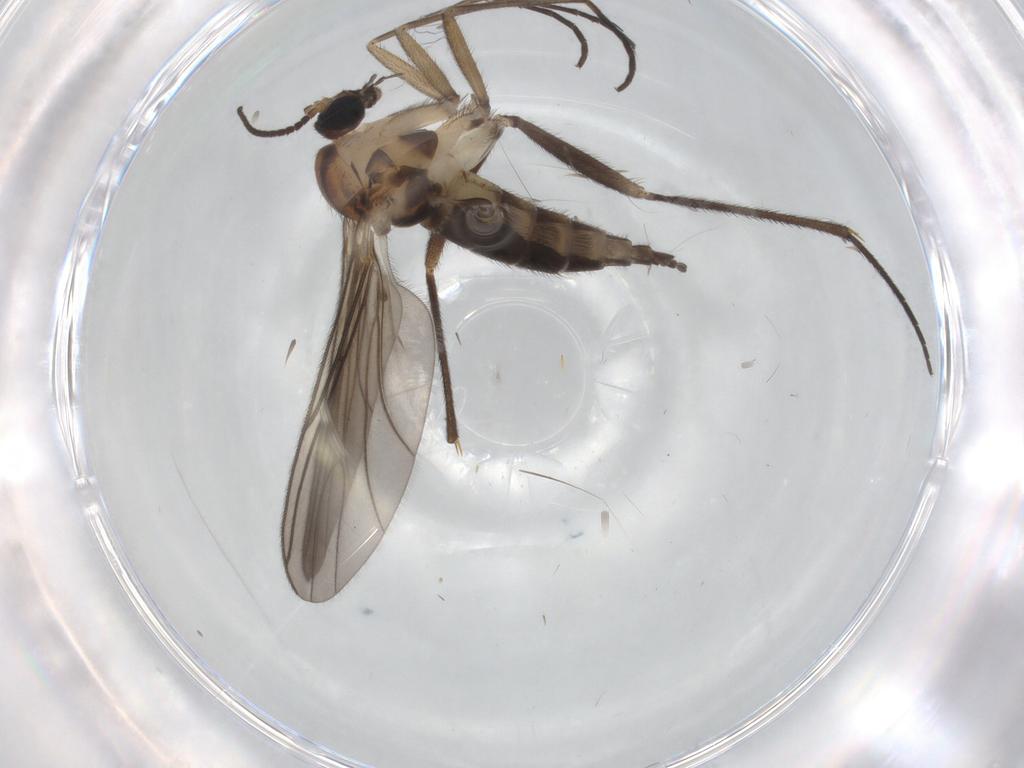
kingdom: Animalia
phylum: Arthropoda
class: Insecta
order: Diptera
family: Sciaridae
